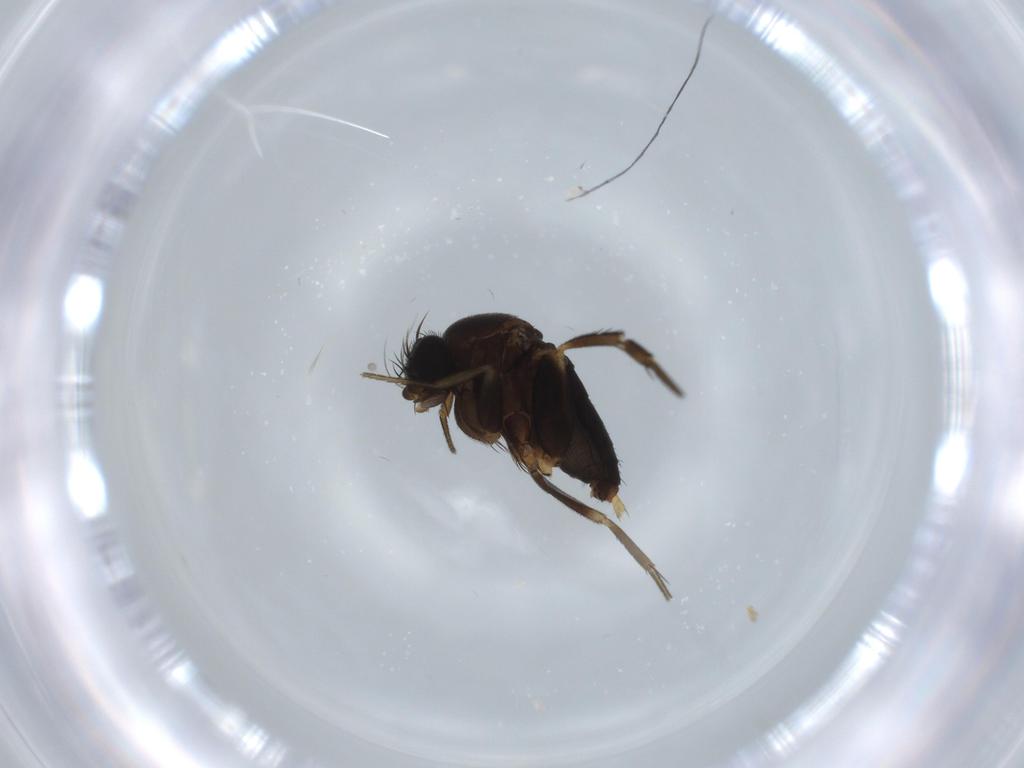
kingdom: Animalia
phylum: Arthropoda
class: Insecta
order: Diptera
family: Phoridae
